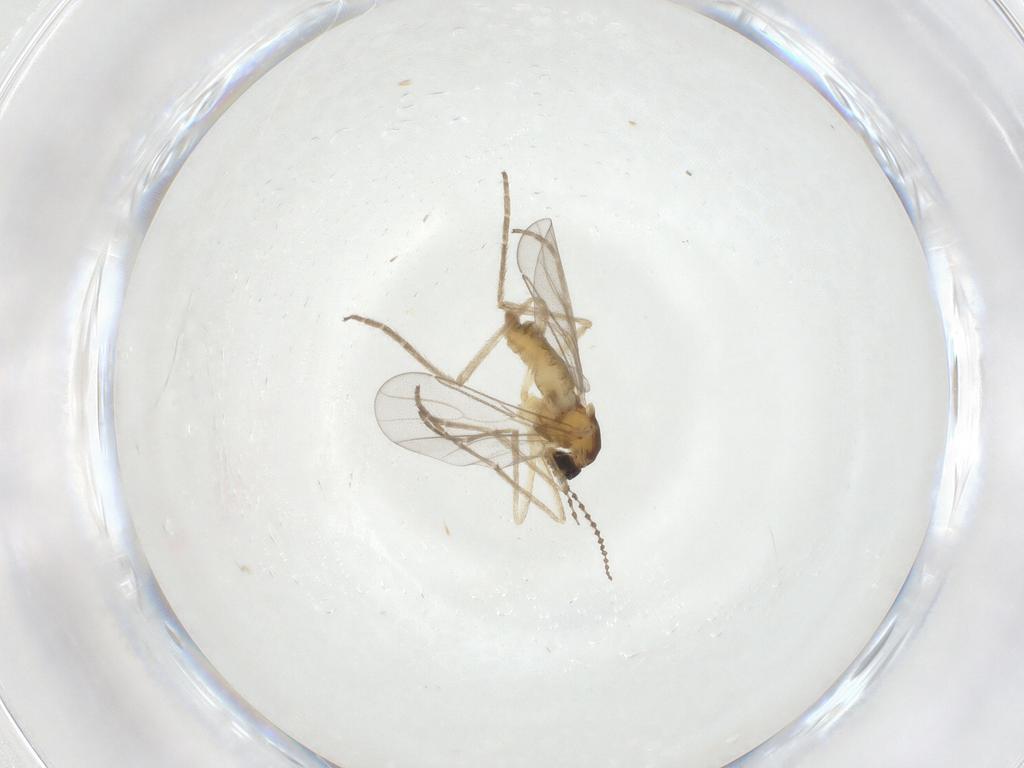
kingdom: Animalia
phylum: Arthropoda
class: Insecta
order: Diptera
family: Cecidomyiidae
